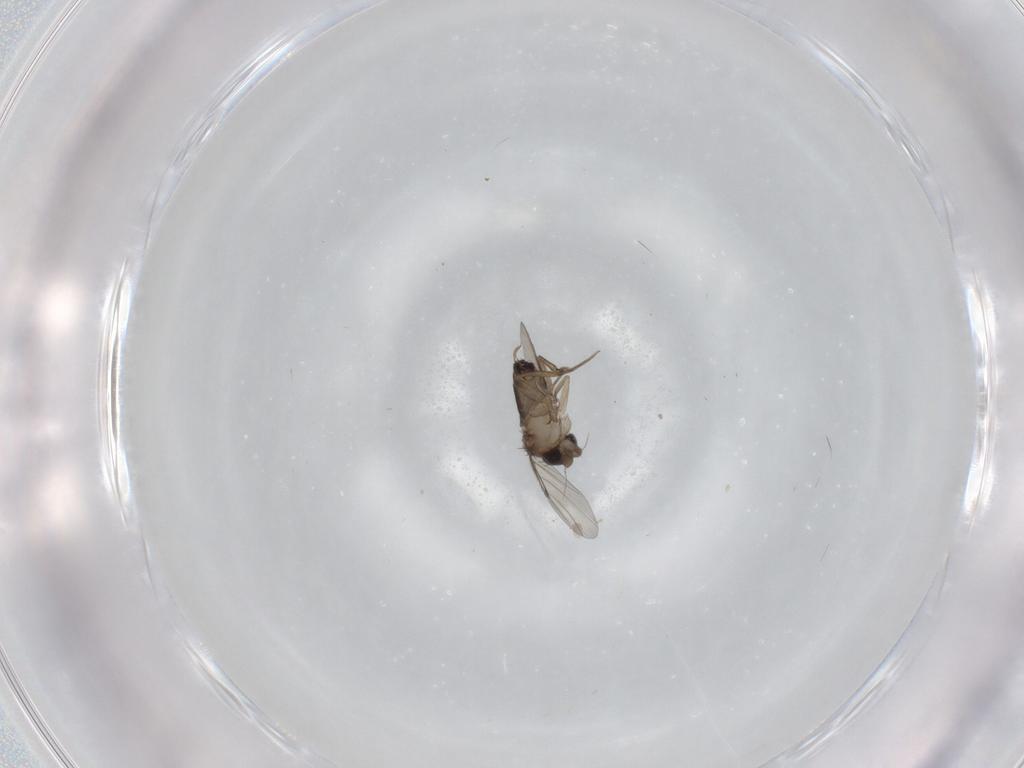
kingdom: Animalia
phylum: Arthropoda
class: Insecta
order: Diptera
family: Phoridae
